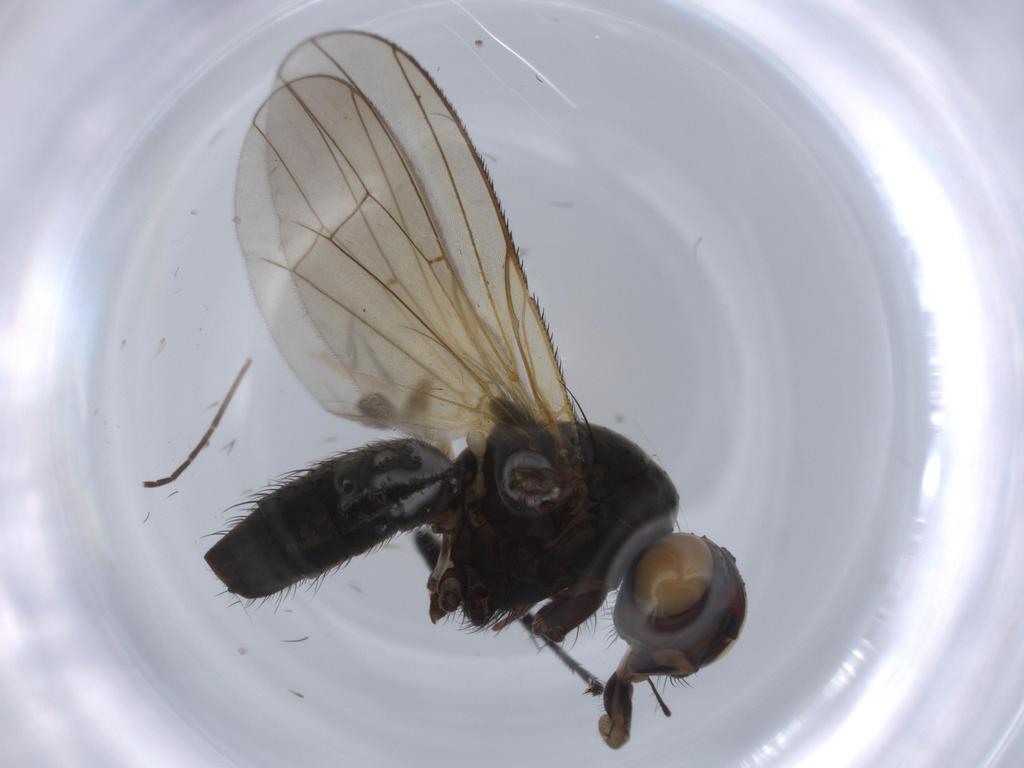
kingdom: Animalia
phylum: Arthropoda
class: Insecta
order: Diptera
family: Anthomyiidae
